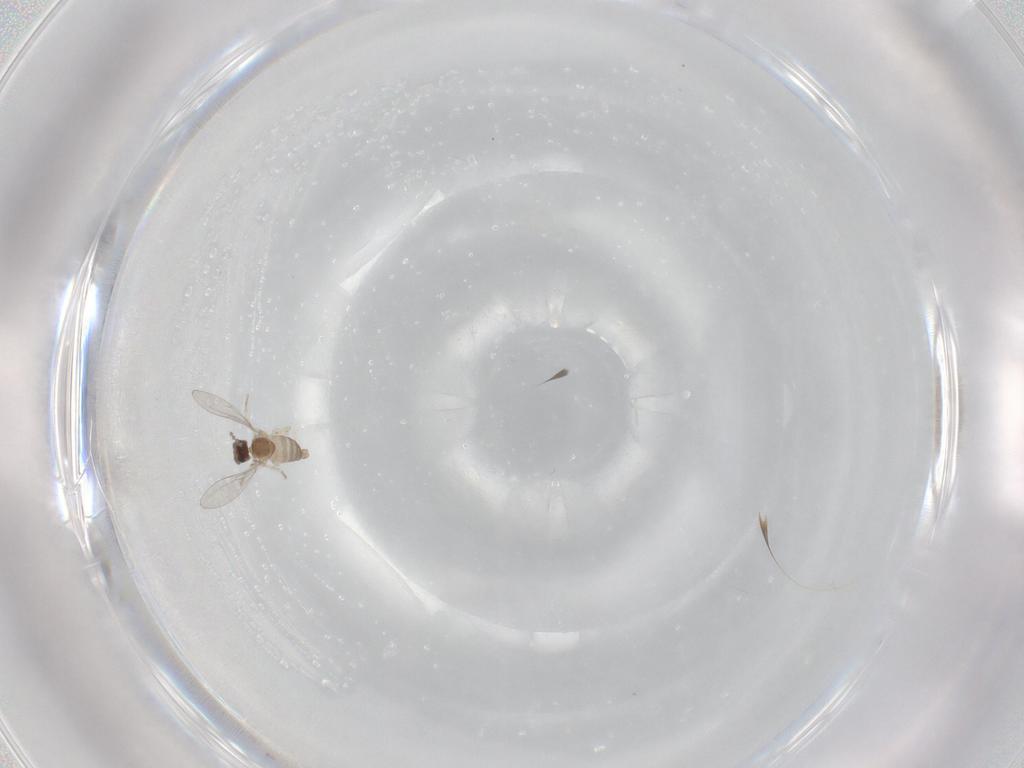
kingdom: Animalia
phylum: Arthropoda
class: Insecta
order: Diptera
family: Cecidomyiidae
